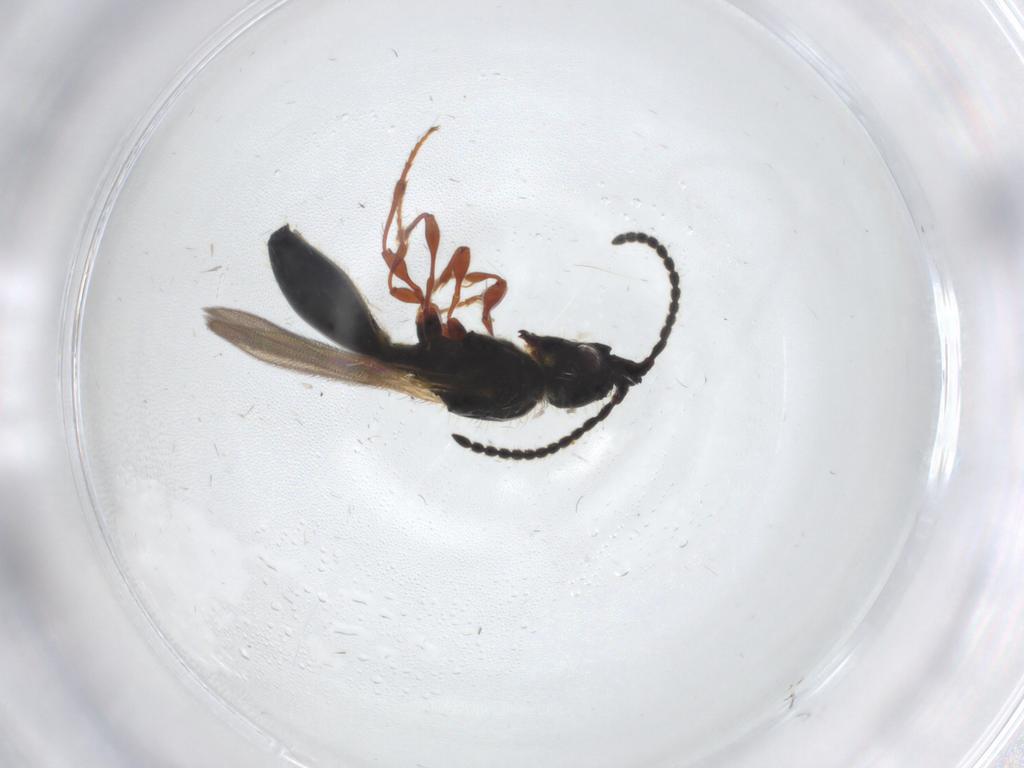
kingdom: Animalia
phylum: Arthropoda
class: Insecta
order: Hymenoptera
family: Diapriidae
